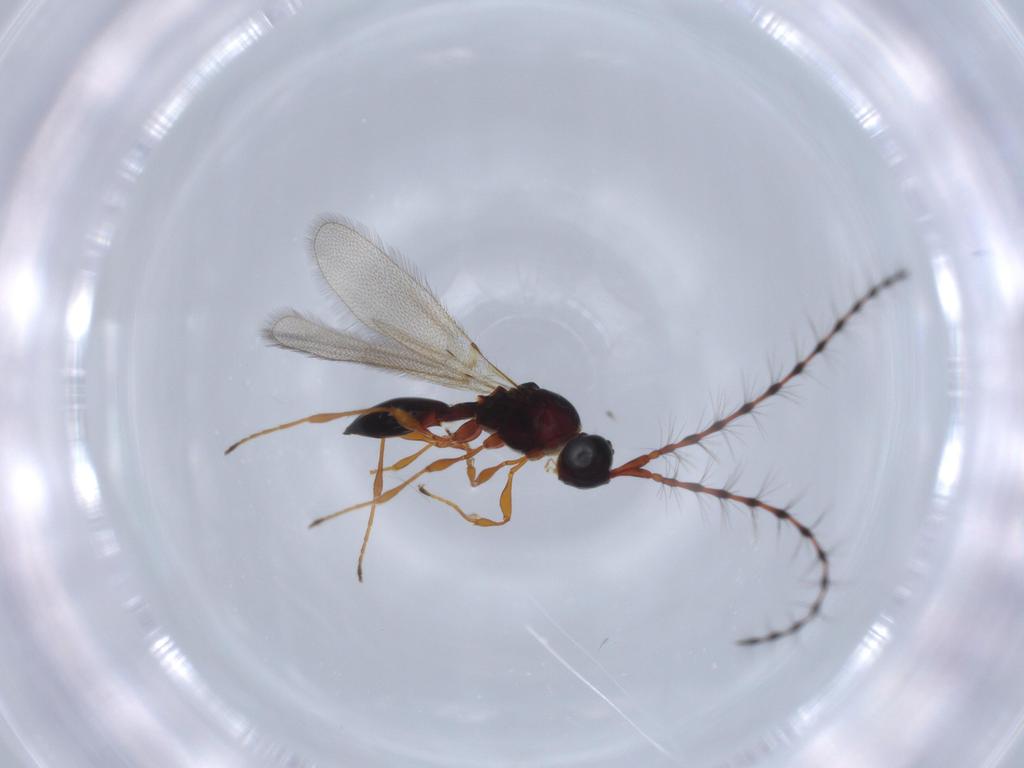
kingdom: Animalia
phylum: Arthropoda
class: Insecta
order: Hymenoptera
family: Diapriidae
